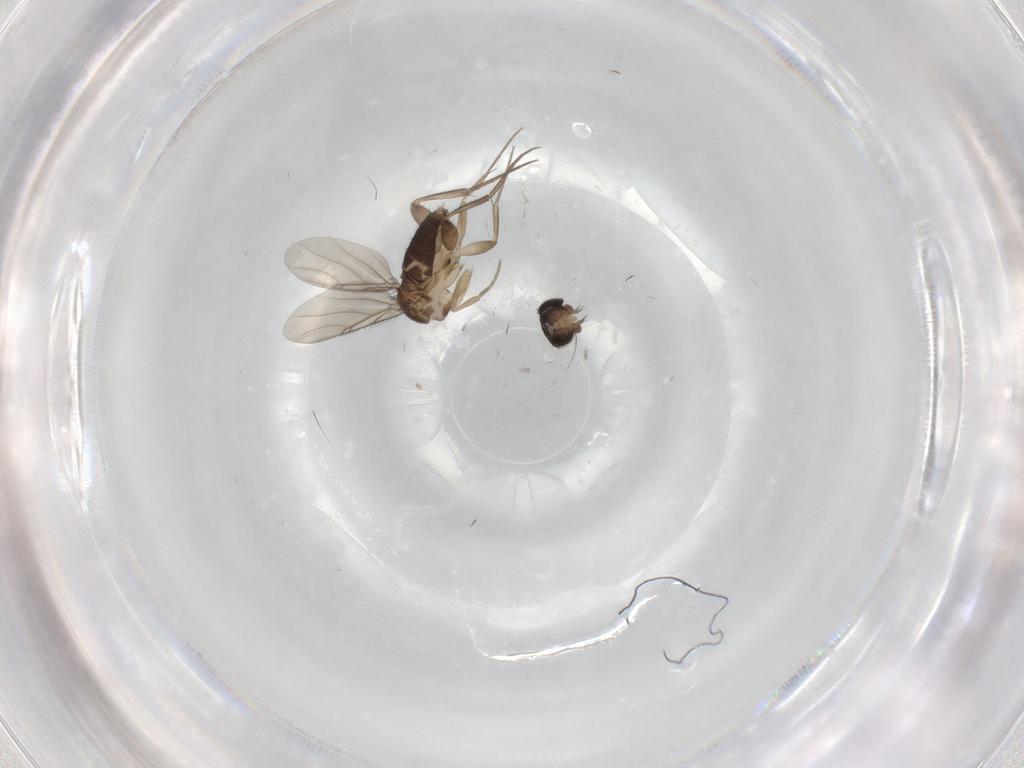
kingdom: Animalia
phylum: Arthropoda
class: Insecta
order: Diptera
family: Phoridae
